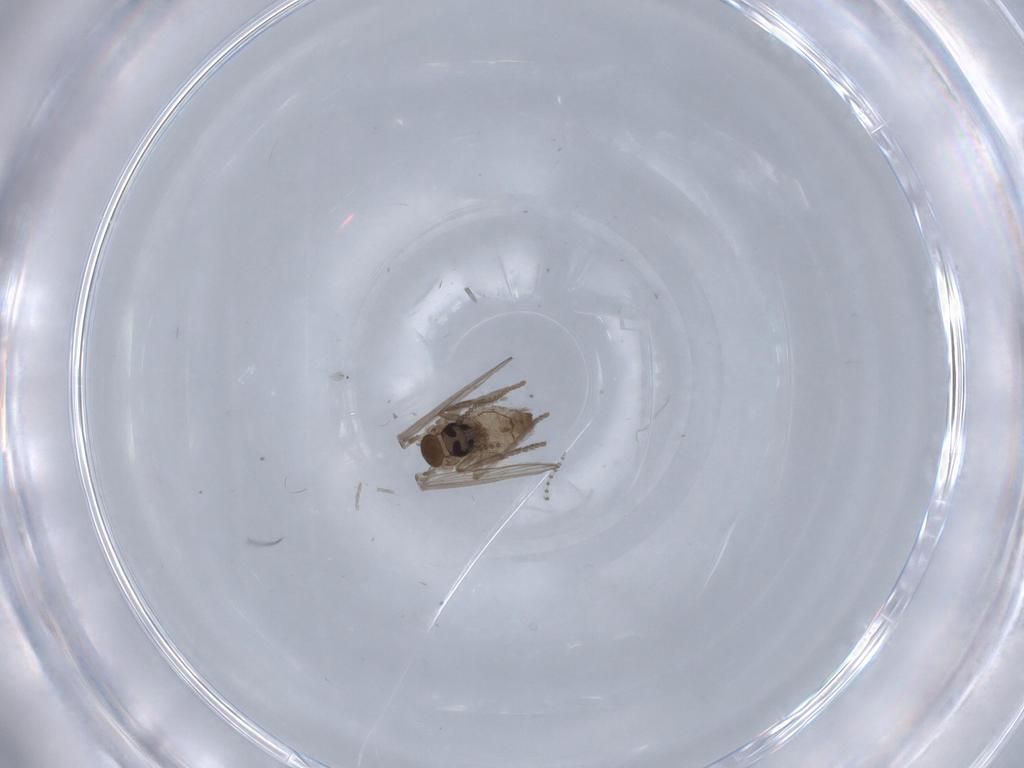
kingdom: Animalia
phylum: Arthropoda
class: Insecta
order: Diptera
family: Psychodidae
